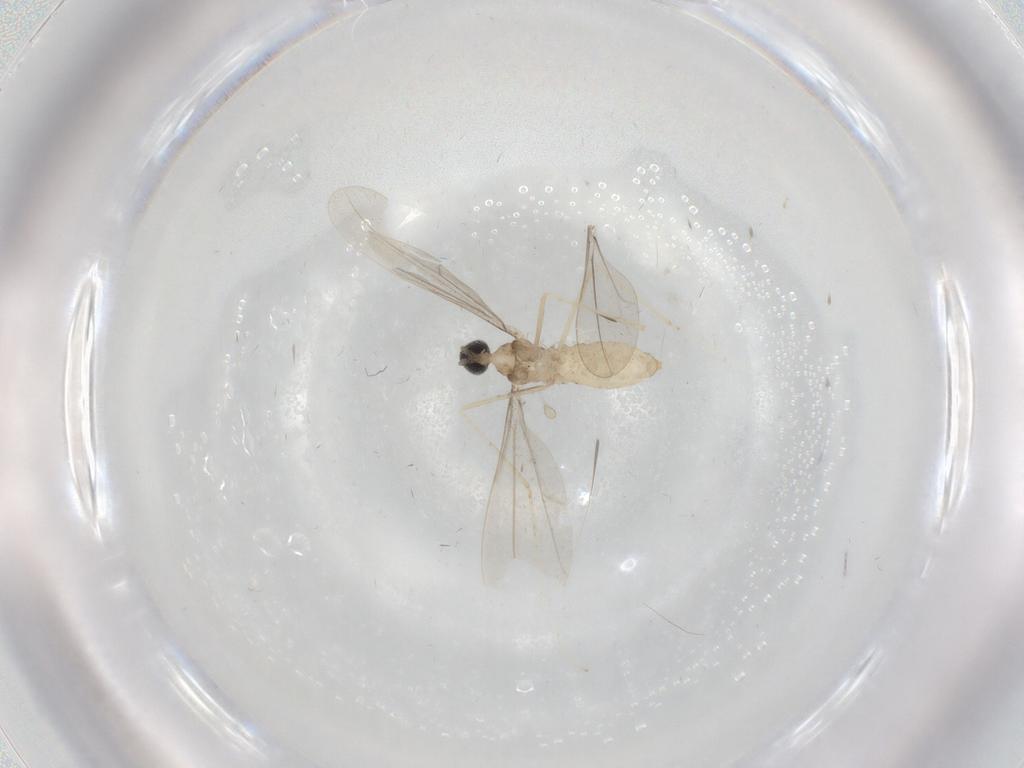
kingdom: Animalia
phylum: Arthropoda
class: Insecta
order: Diptera
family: Cecidomyiidae
